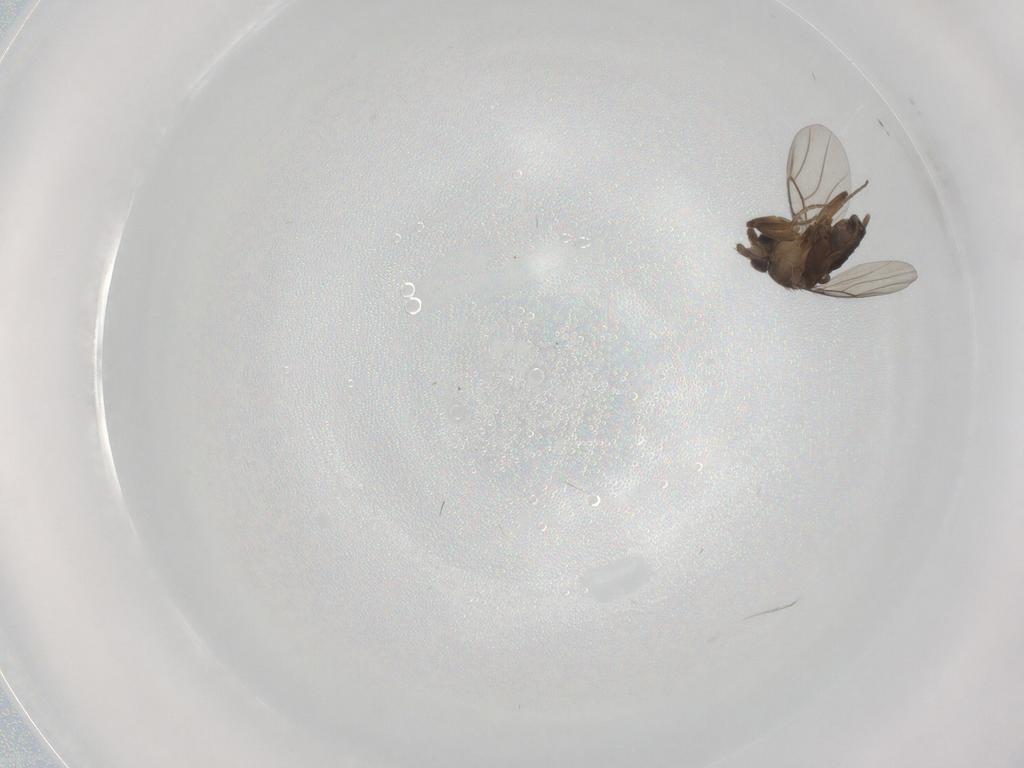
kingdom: Animalia
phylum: Arthropoda
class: Insecta
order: Diptera
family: Phoridae
